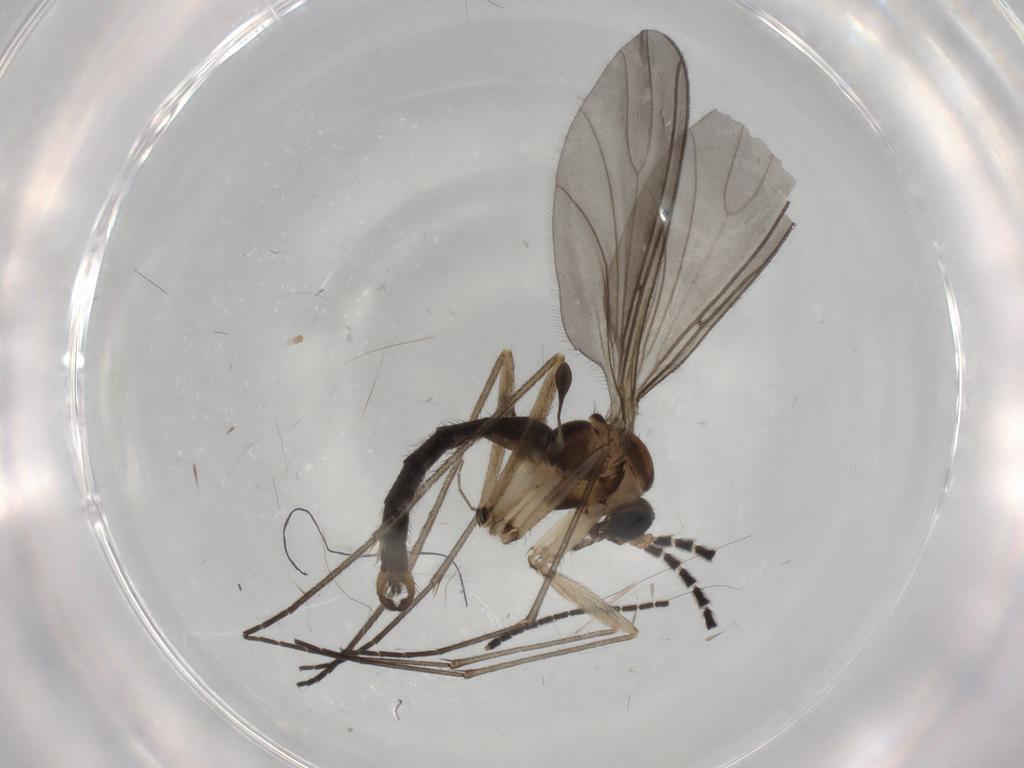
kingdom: Animalia
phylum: Arthropoda
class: Insecta
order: Diptera
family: Sciaridae
